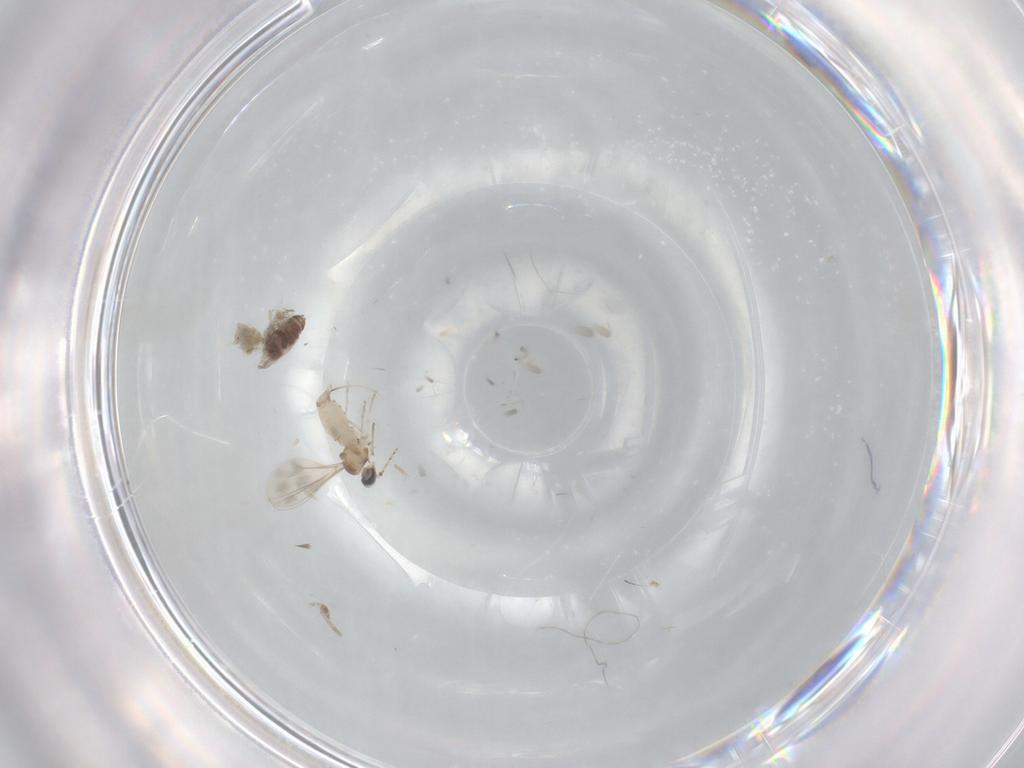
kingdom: Animalia
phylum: Arthropoda
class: Insecta
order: Diptera
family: Cecidomyiidae
